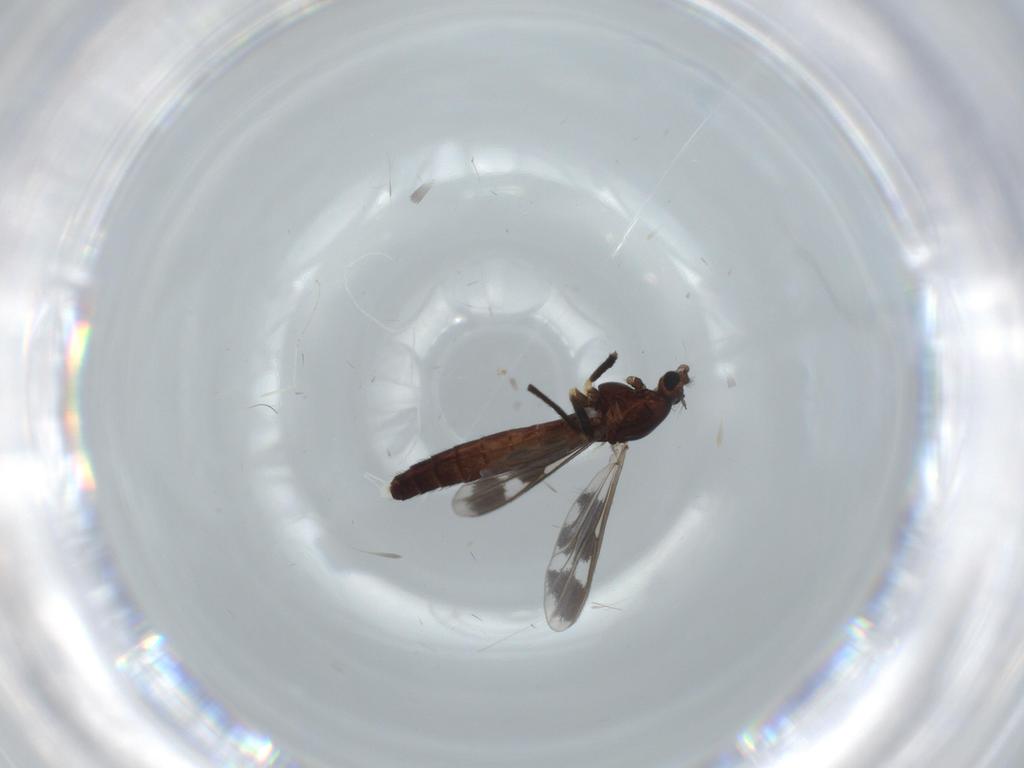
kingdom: Animalia
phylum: Arthropoda
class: Insecta
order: Diptera
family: Chironomidae
